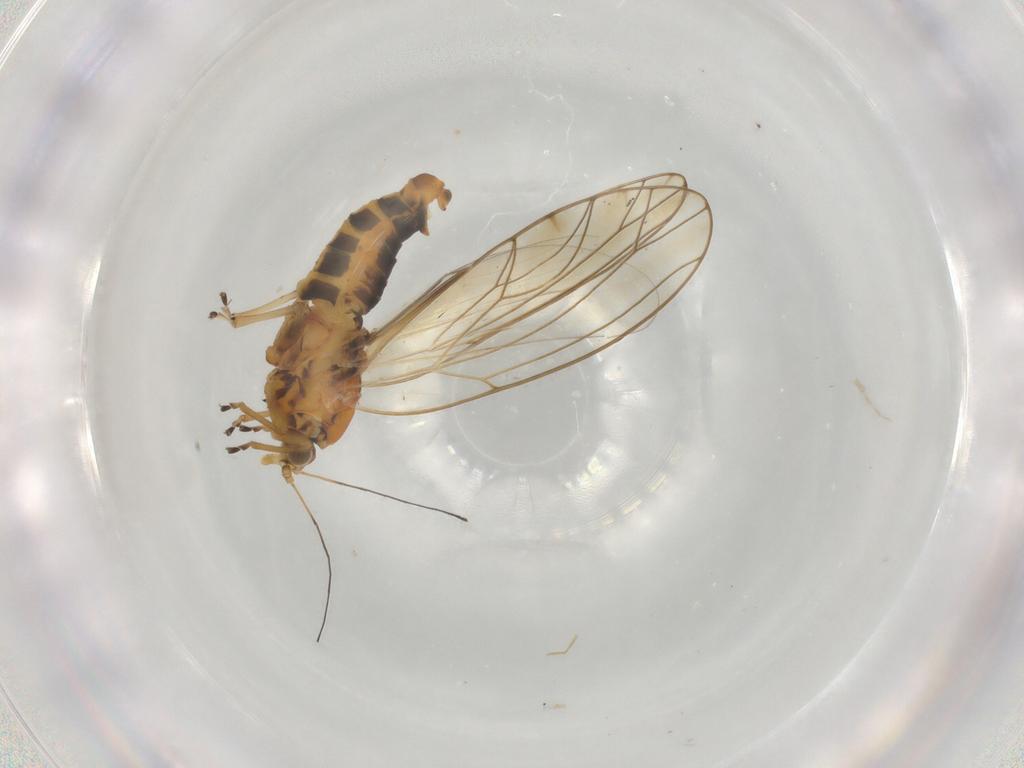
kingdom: Animalia
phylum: Arthropoda
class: Insecta
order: Hemiptera
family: Triozidae
